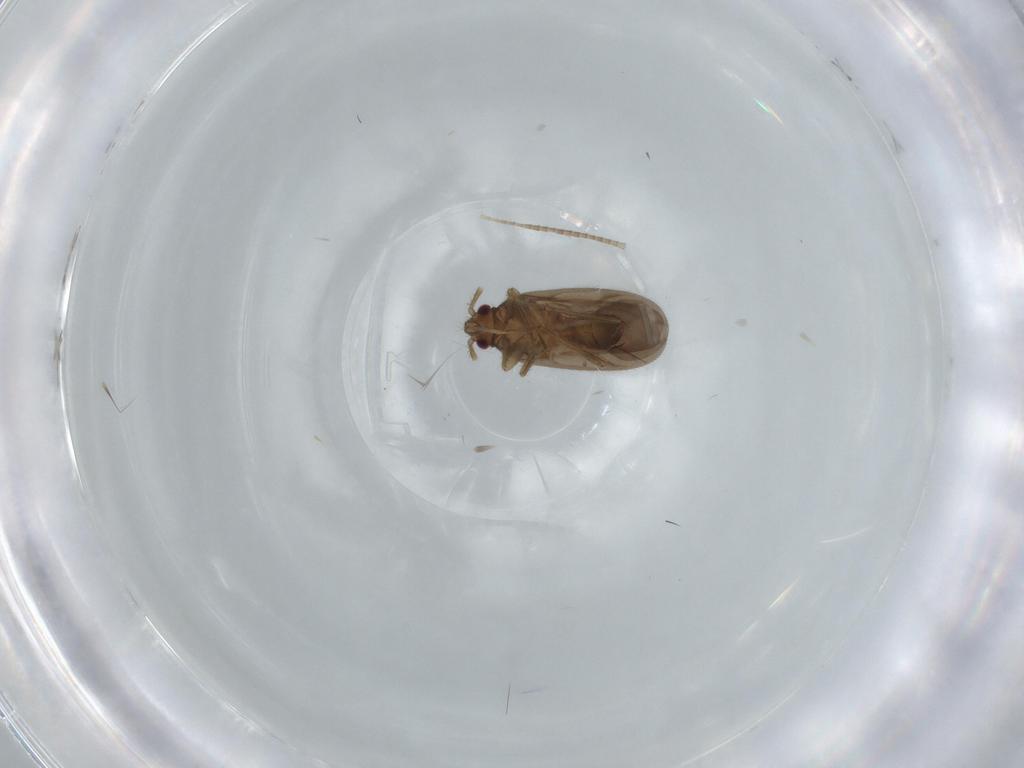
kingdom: Animalia
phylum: Arthropoda
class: Insecta
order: Hemiptera
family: Ceratocombidae
